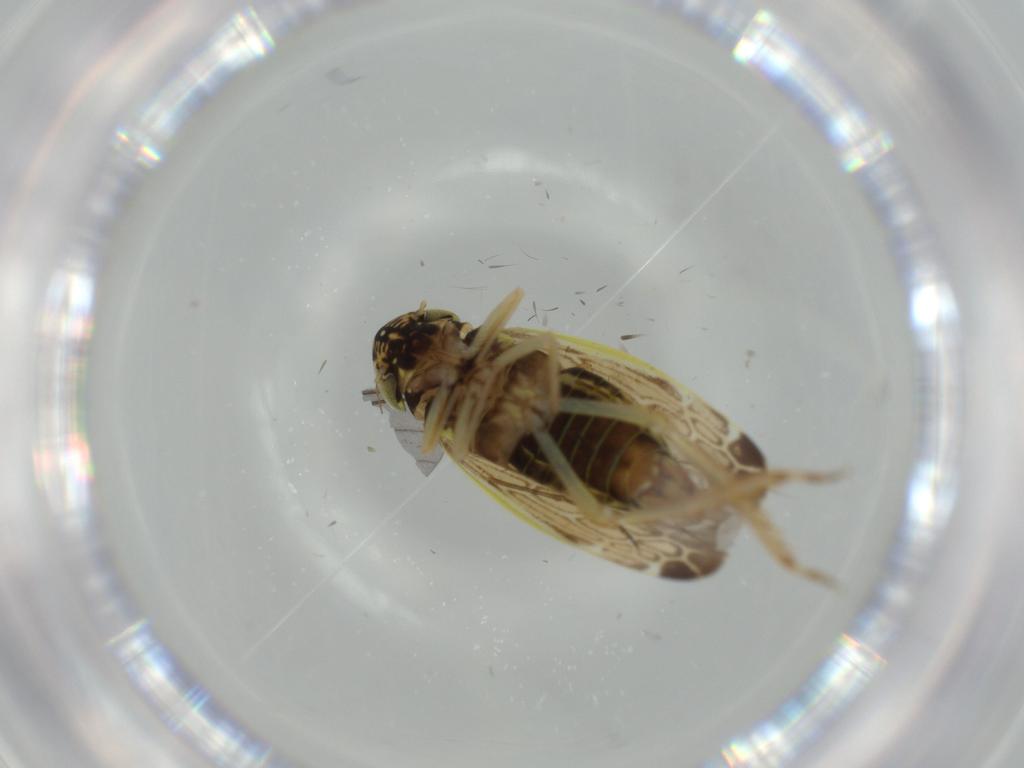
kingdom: Animalia
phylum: Arthropoda
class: Insecta
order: Hemiptera
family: Cicadellidae
